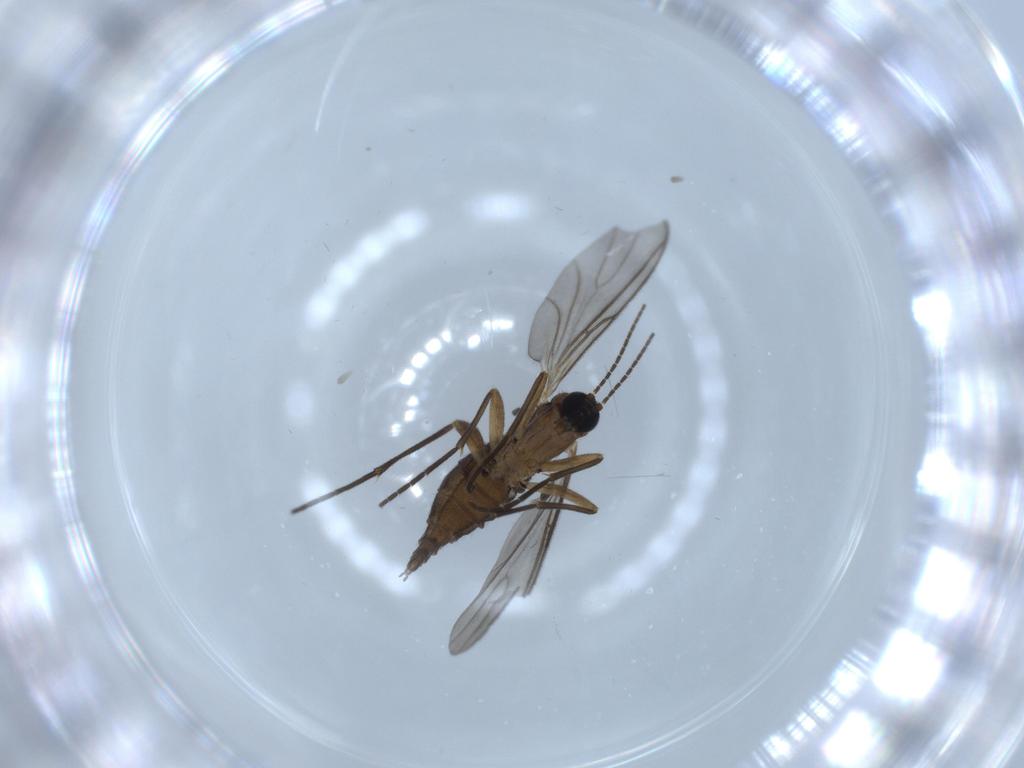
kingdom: Animalia
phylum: Arthropoda
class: Insecta
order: Diptera
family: Sciaridae
